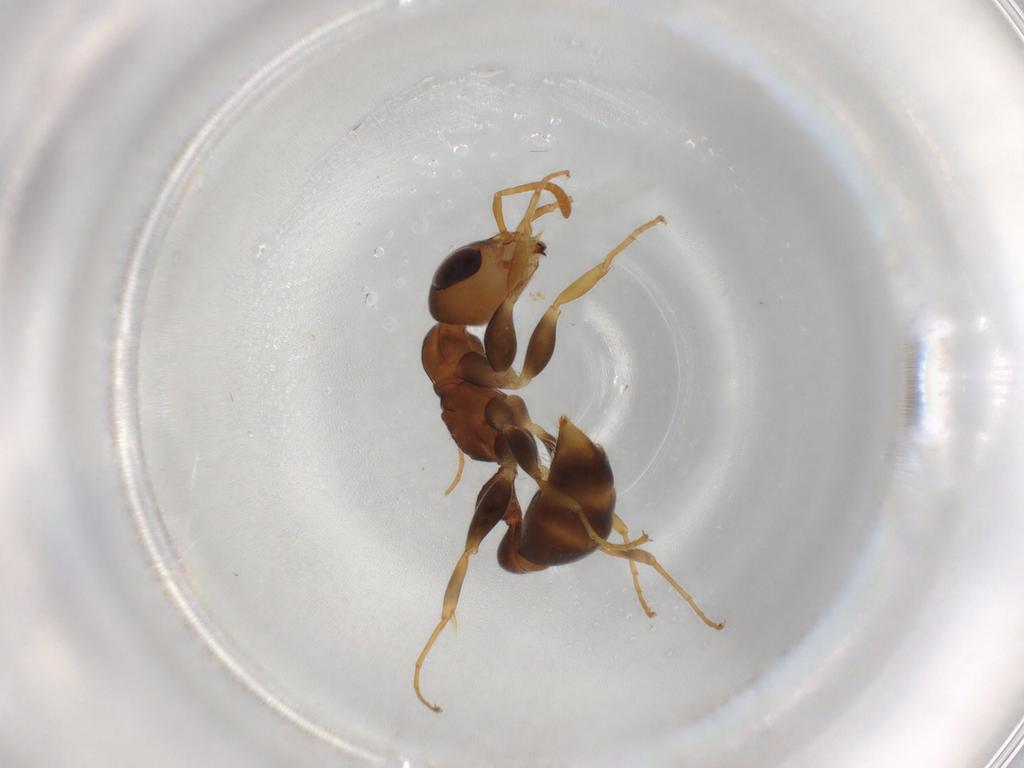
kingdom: Animalia
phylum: Arthropoda
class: Insecta
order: Hymenoptera
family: Formicidae
